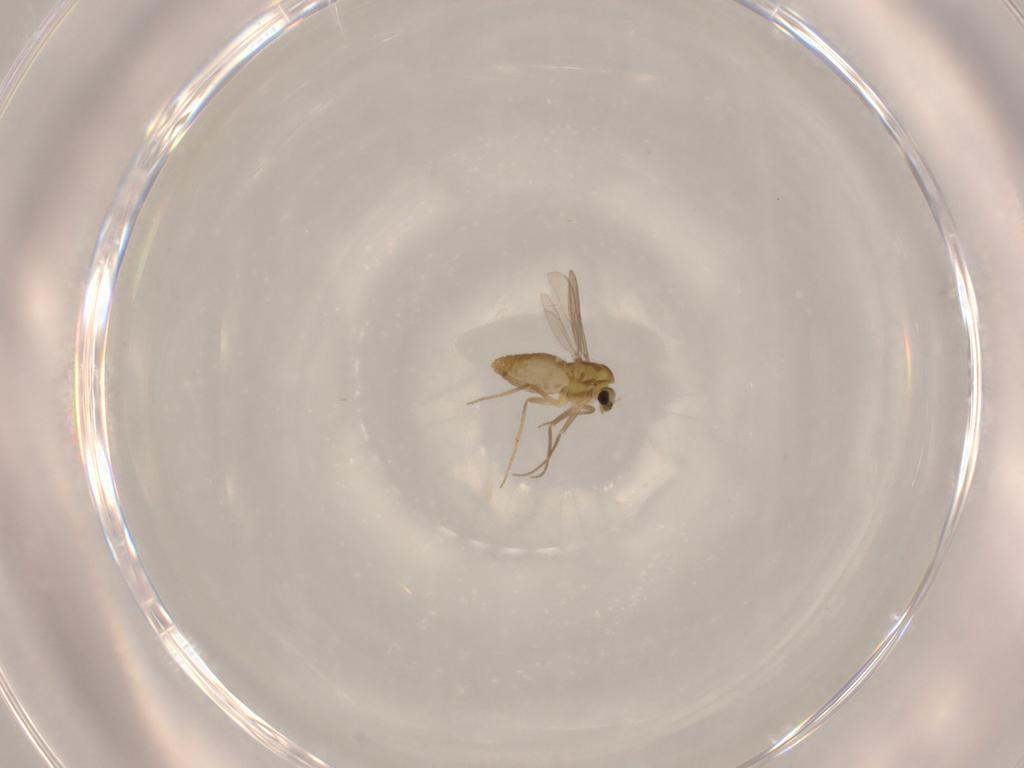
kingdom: Animalia
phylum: Arthropoda
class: Insecta
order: Diptera
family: Chironomidae
